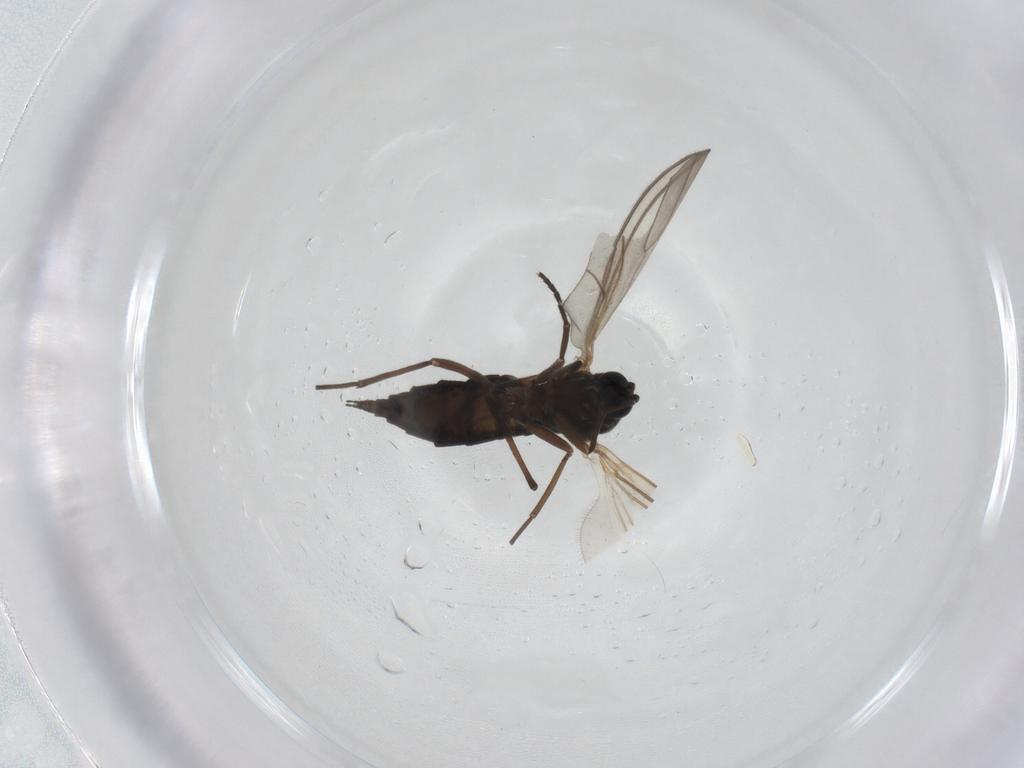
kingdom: Animalia
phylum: Arthropoda
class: Insecta
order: Diptera
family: Chironomidae
